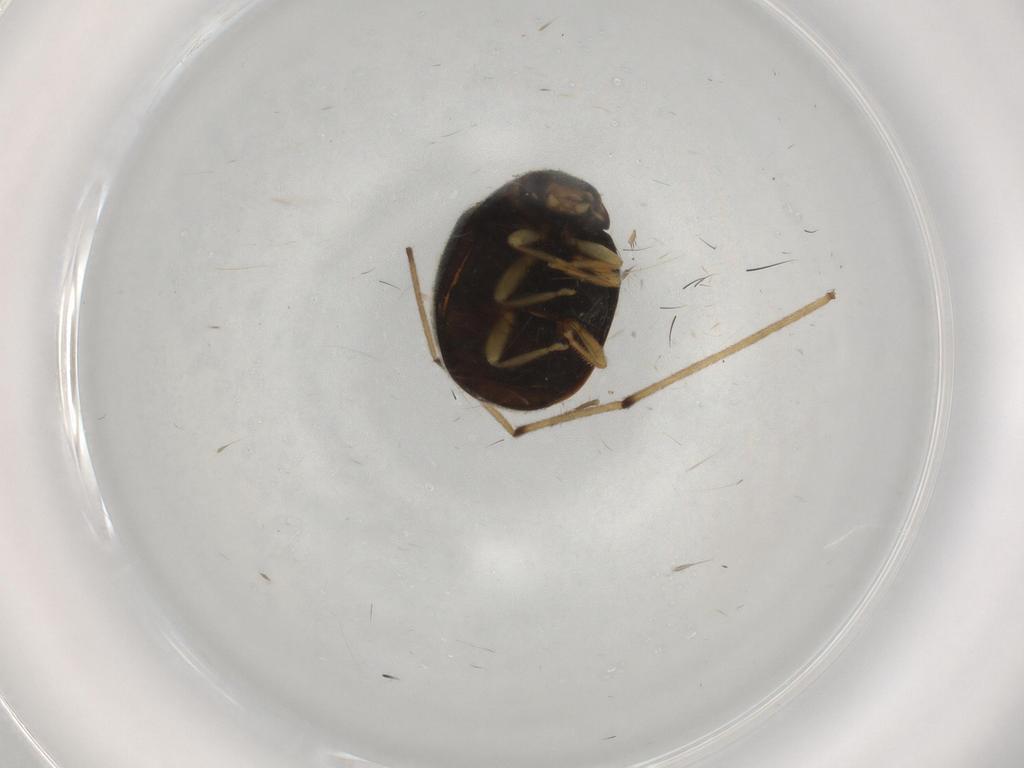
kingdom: Animalia
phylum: Arthropoda
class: Insecta
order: Coleoptera
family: Coccinellidae
